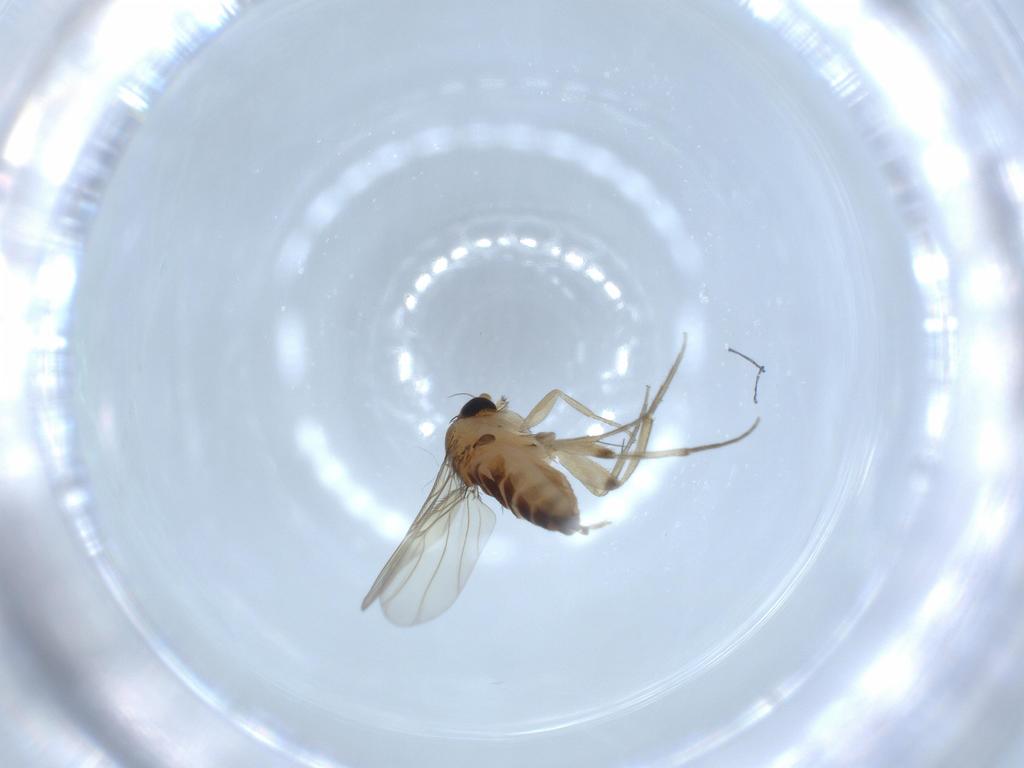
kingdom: Animalia
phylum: Arthropoda
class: Insecta
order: Diptera
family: Phoridae
